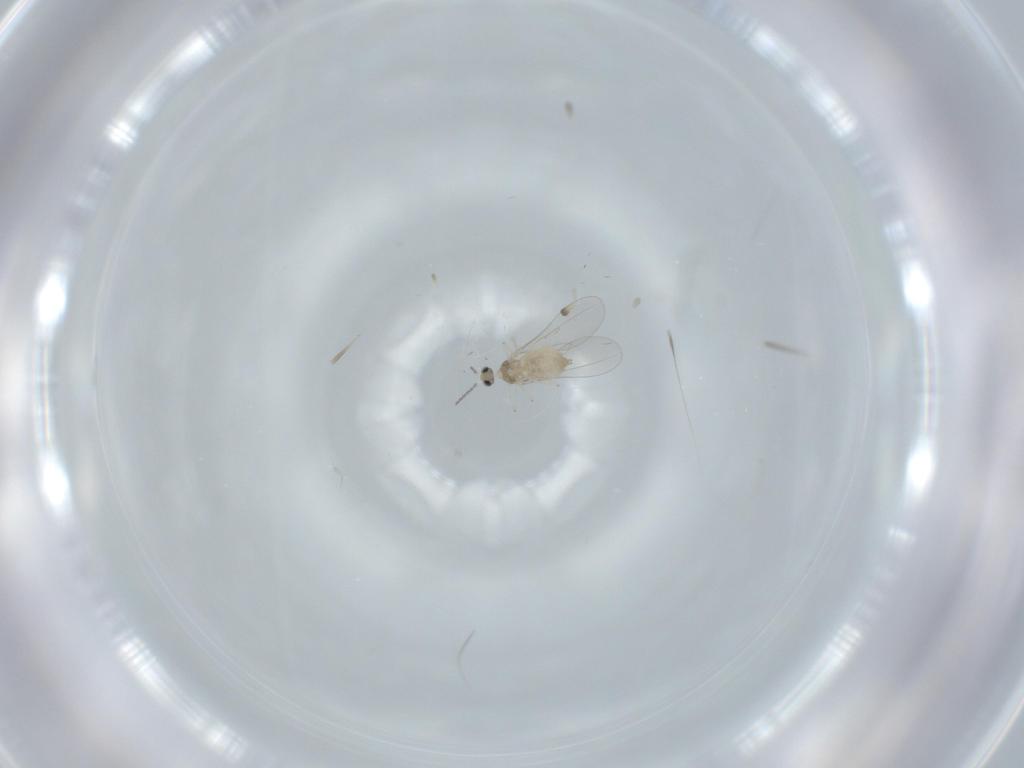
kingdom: Animalia
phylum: Arthropoda
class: Insecta
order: Diptera
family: Cecidomyiidae
